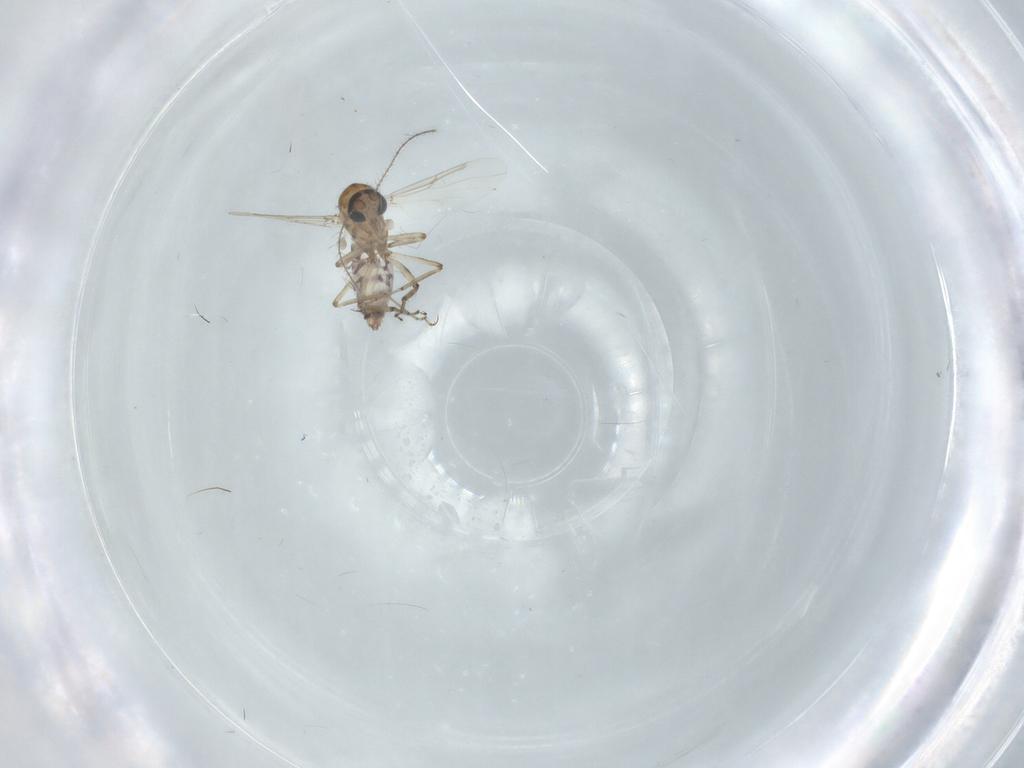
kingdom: Animalia
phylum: Arthropoda
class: Insecta
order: Diptera
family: Ceratopogonidae
